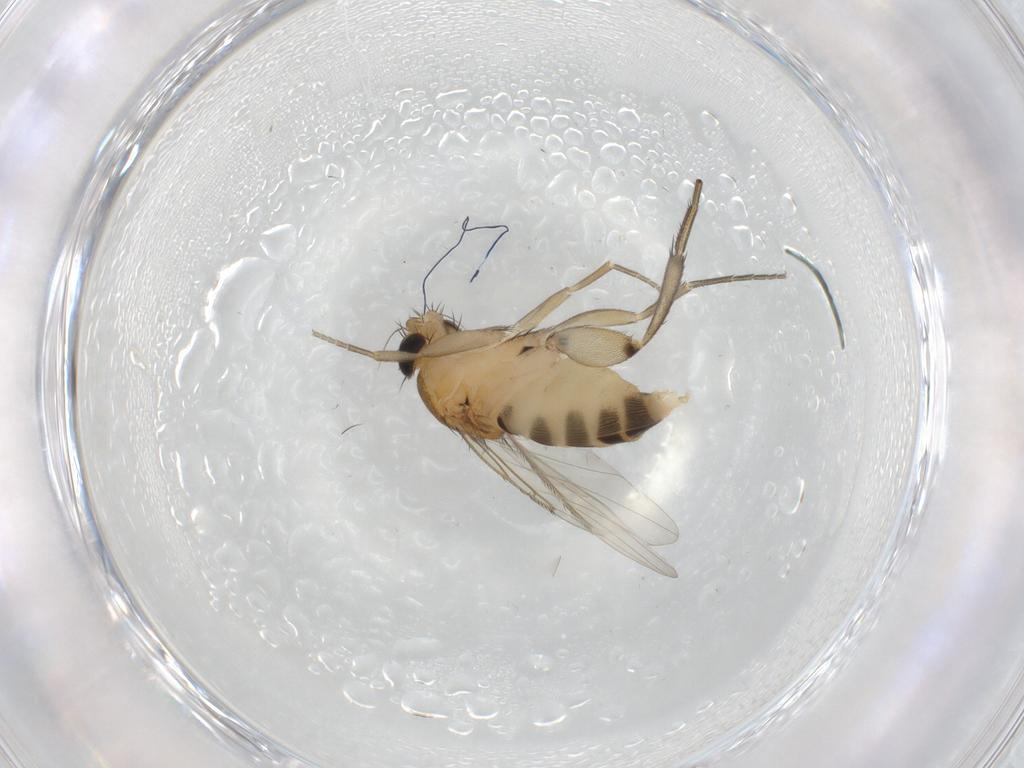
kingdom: Animalia
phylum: Arthropoda
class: Insecta
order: Diptera
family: Phoridae
